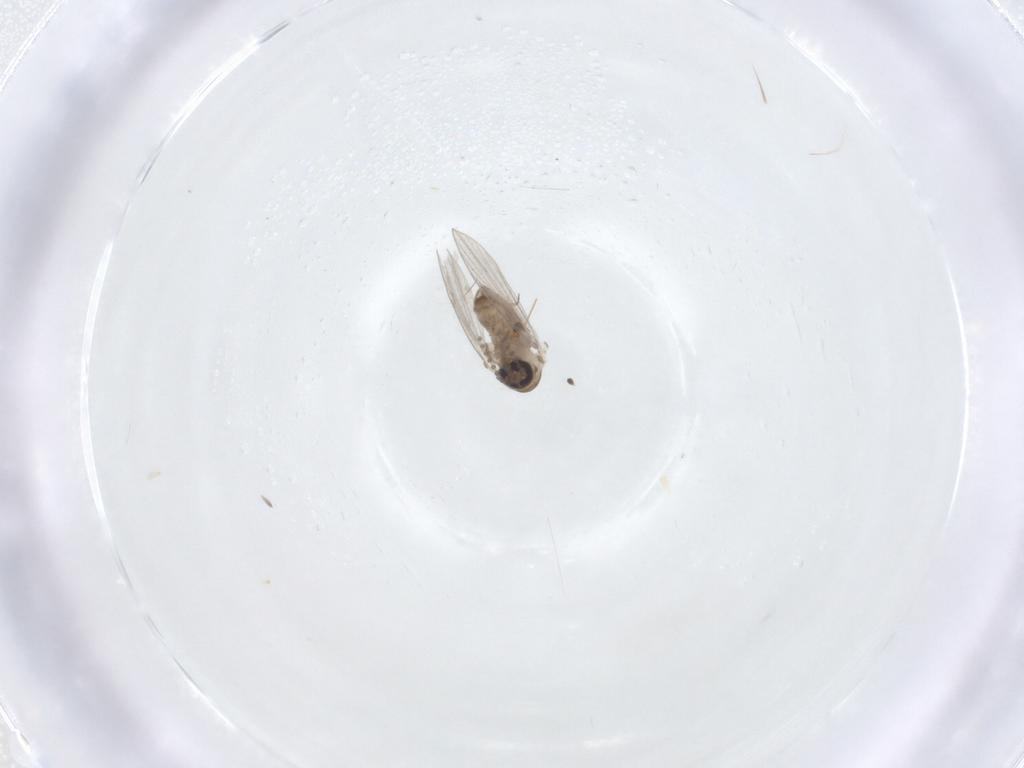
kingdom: Animalia
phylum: Arthropoda
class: Insecta
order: Diptera
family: Psychodidae
